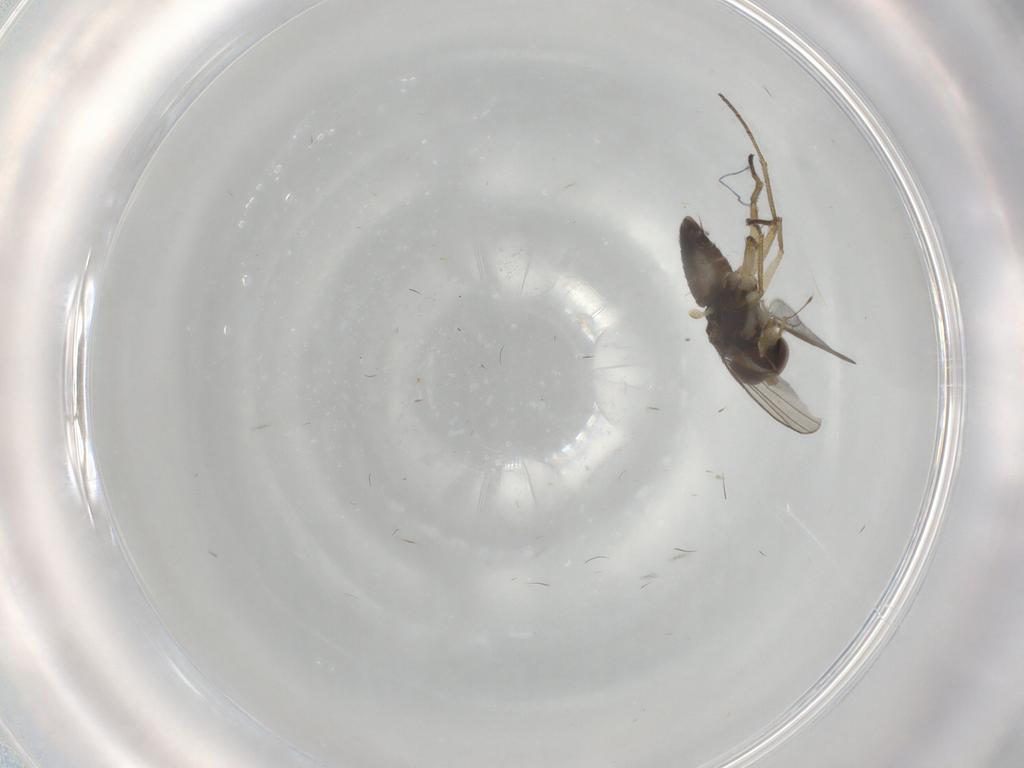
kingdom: Animalia
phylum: Arthropoda
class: Insecta
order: Diptera
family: Dolichopodidae
